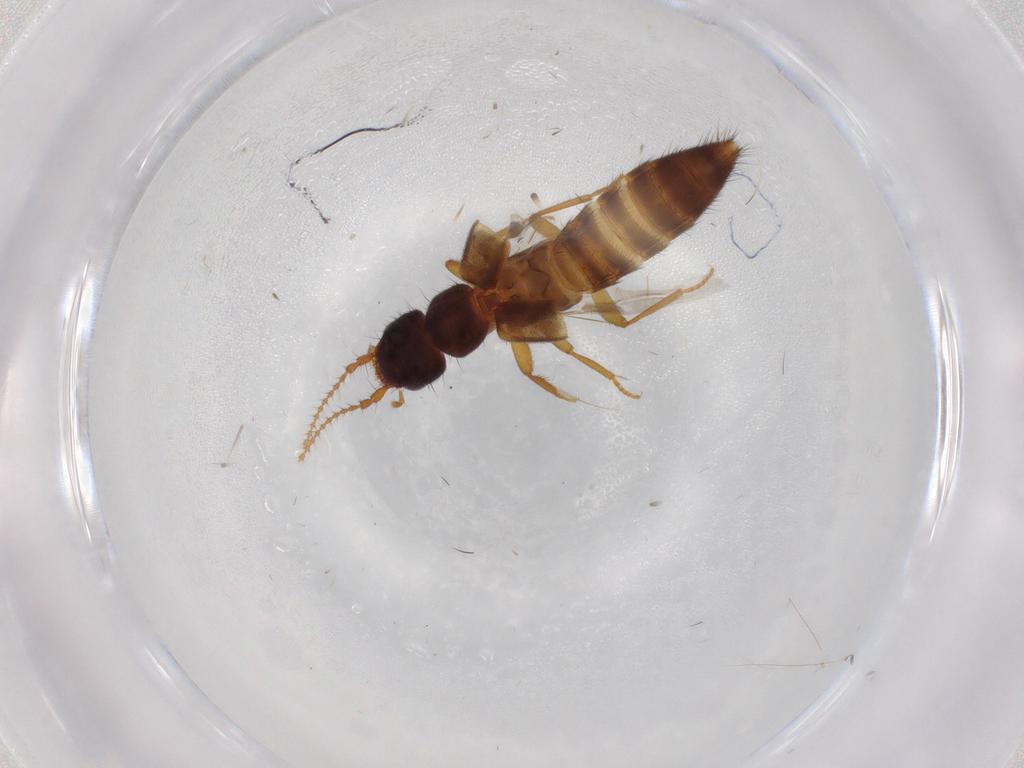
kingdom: Animalia
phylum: Arthropoda
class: Insecta
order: Coleoptera
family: Staphylinidae
